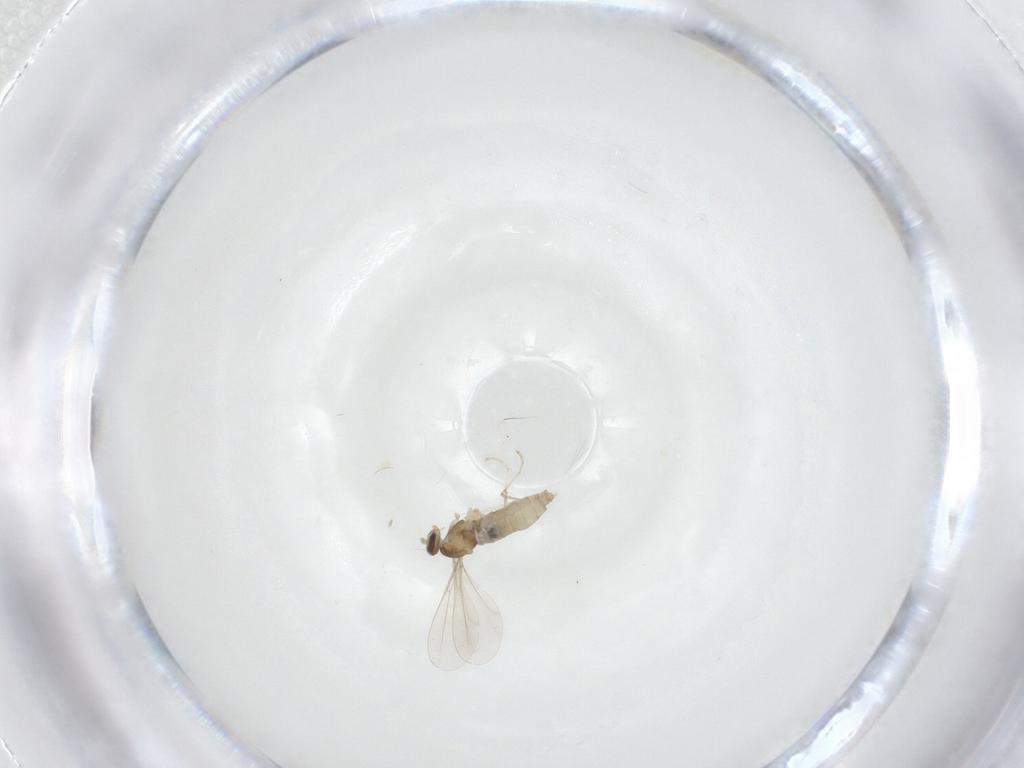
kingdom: Animalia
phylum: Arthropoda
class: Insecta
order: Diptera
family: Cecidomyiidae
